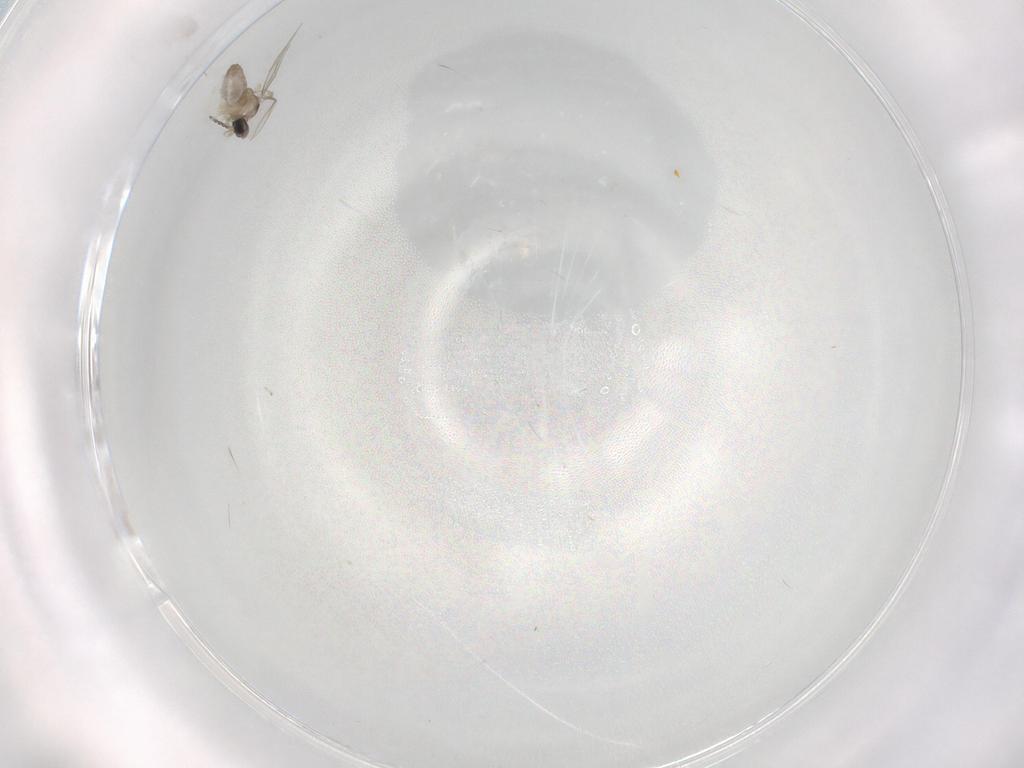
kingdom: Animalia
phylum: Arthropoda
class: Insecta
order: Diptera
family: Cecidomyiidae
